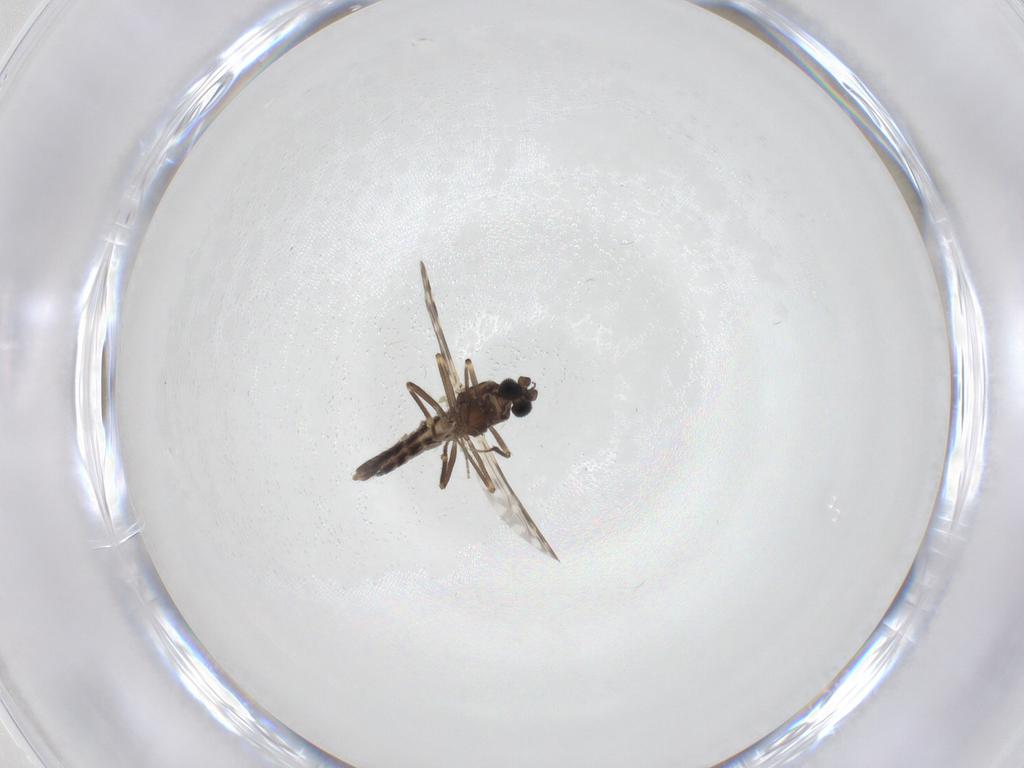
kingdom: Animalia
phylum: Arthropoda
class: Insecta
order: Diptera
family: Ceratopogonidae
